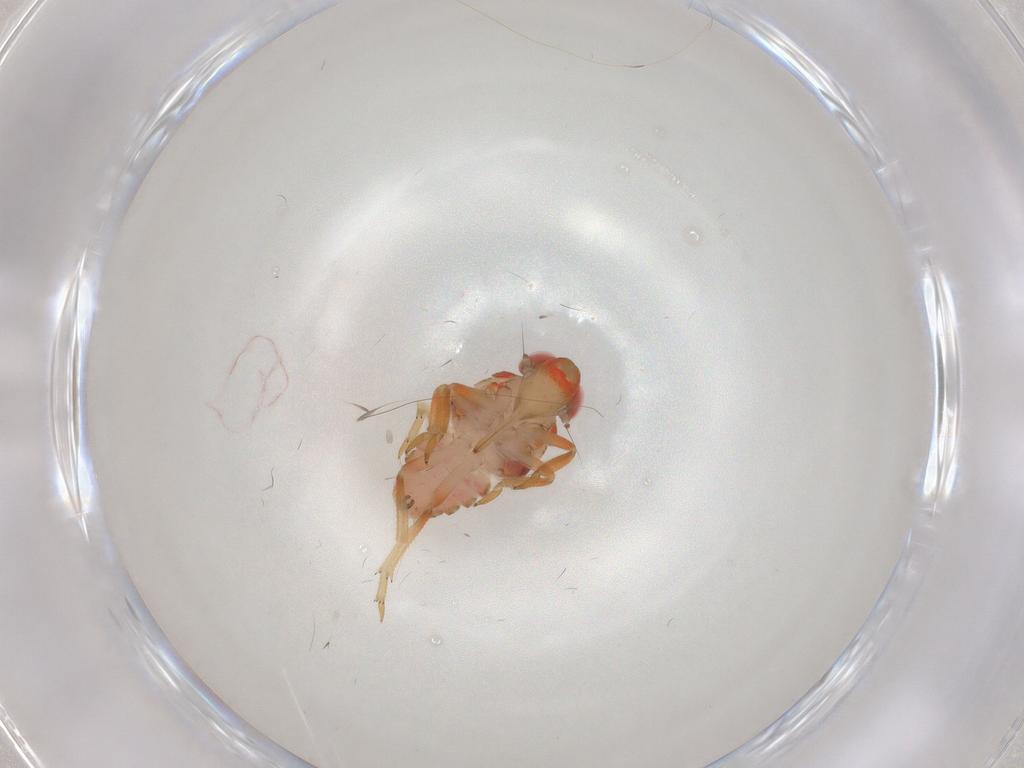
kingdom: Animalia
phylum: Arthropoda
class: Insecta
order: Hemiptera
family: Issidae
